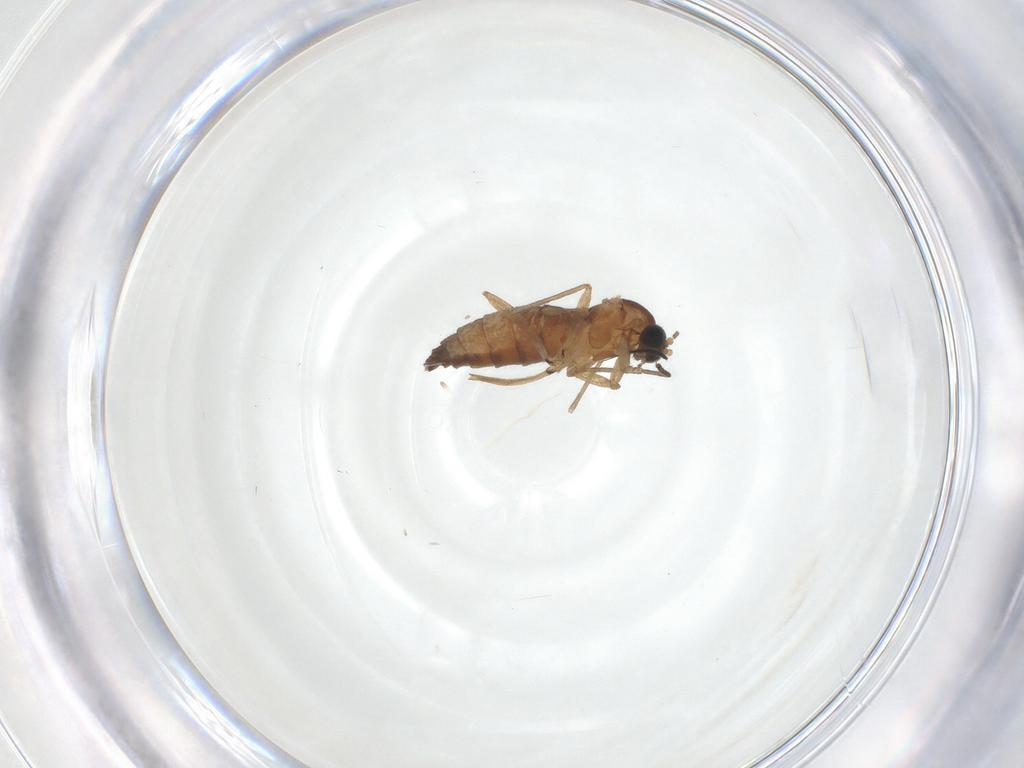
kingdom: Animalia
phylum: Arthropoda
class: Insecta
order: Diptera
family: Sciaridae
